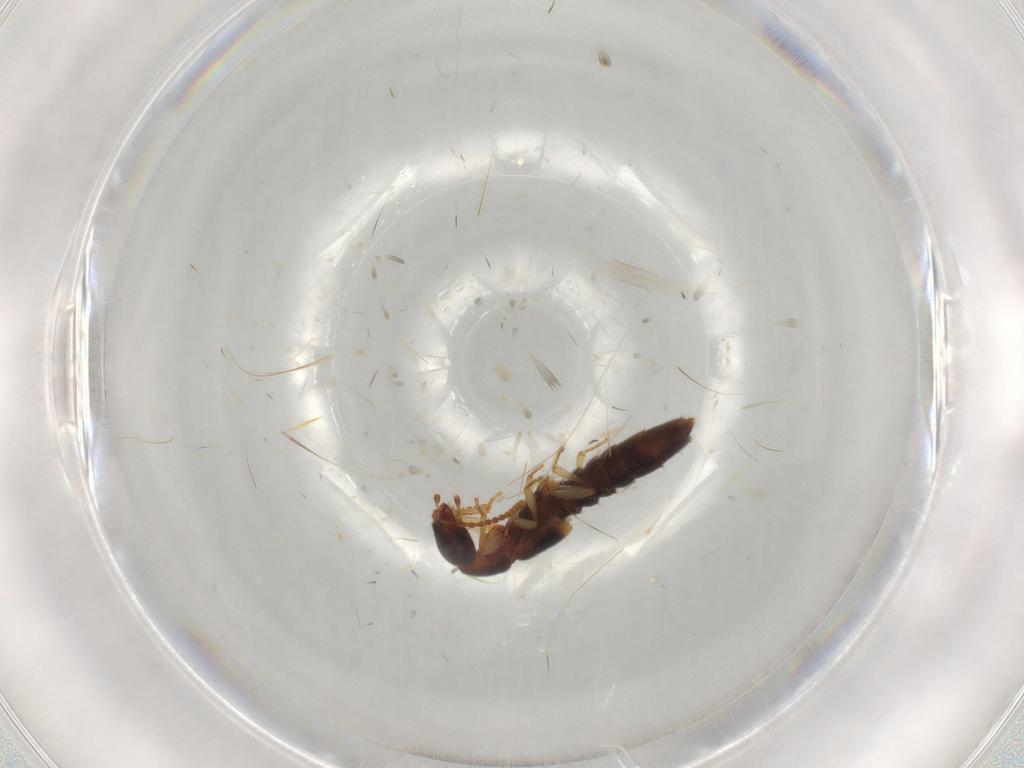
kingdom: Animalia
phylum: Arthropoda
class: Insecta
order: Coleoptera
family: Staphylinidae
